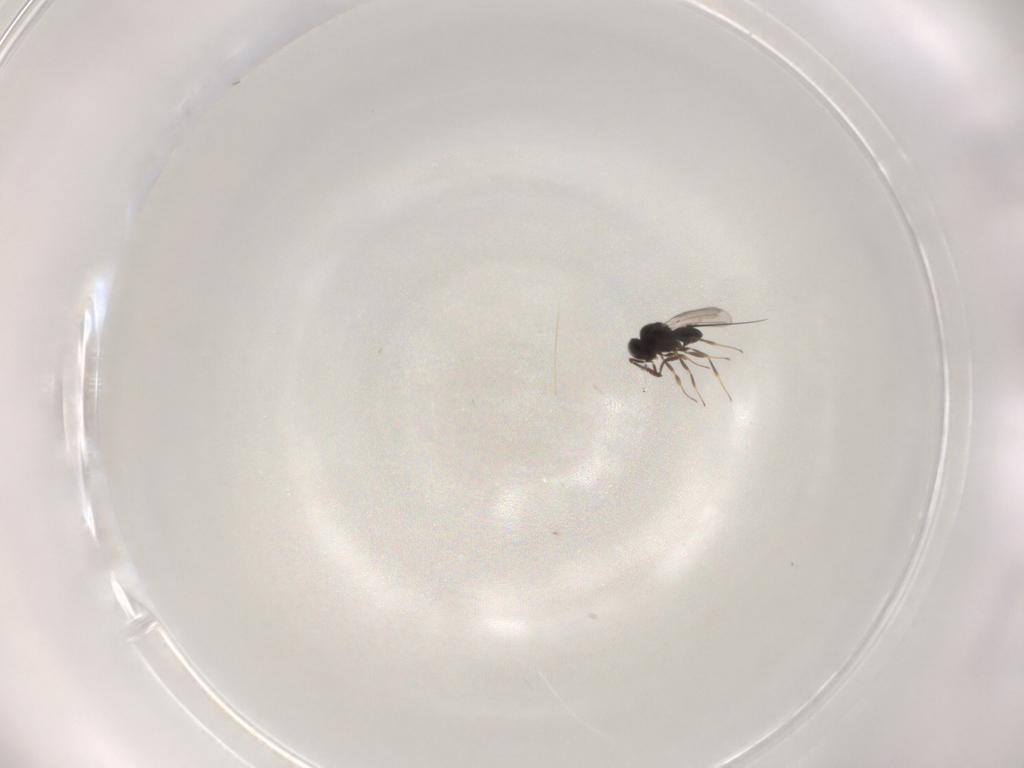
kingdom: Animalia
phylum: Arthropoda
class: Insecta
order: Hymenoptera
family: Scelionidae
